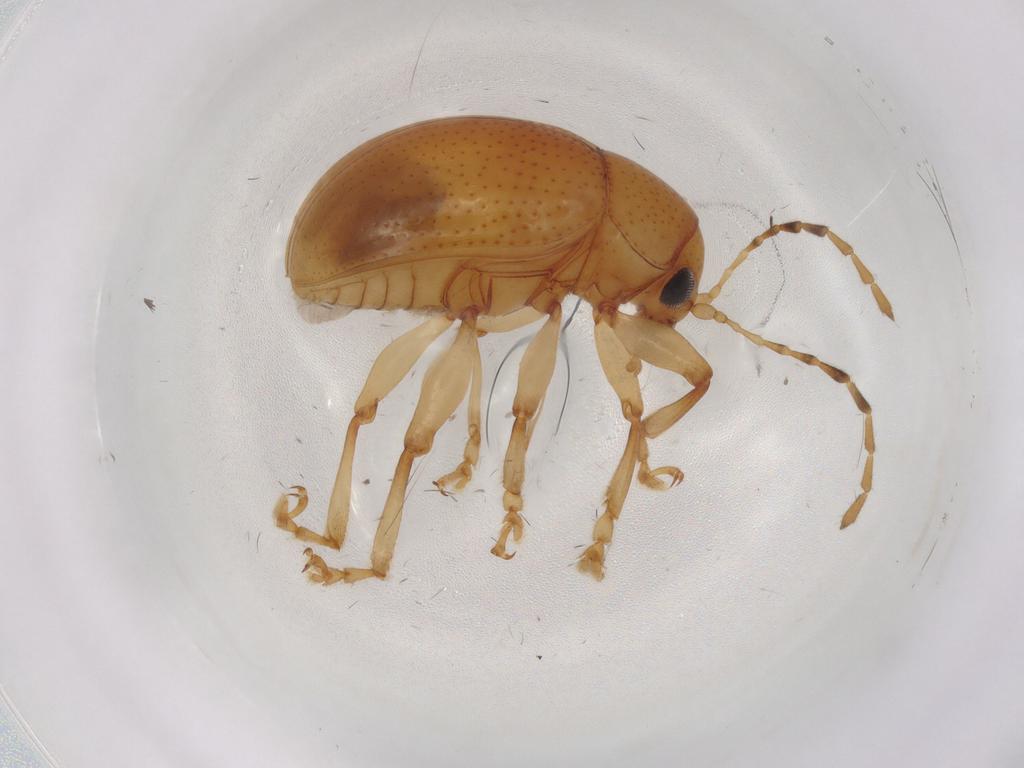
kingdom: Animalia
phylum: Arthropoda
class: Insecta
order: Coleoptera
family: Chrysomelidae
